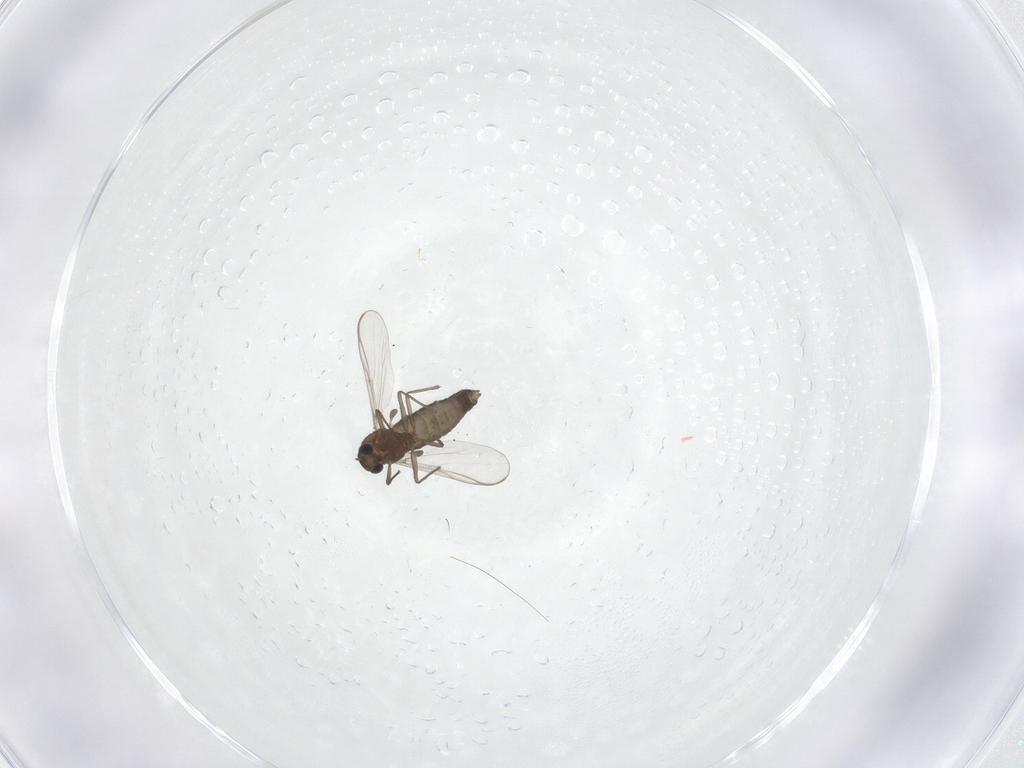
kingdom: Animalia
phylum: Arthropoda
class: Insecta
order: Diptera
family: Chironomidae
